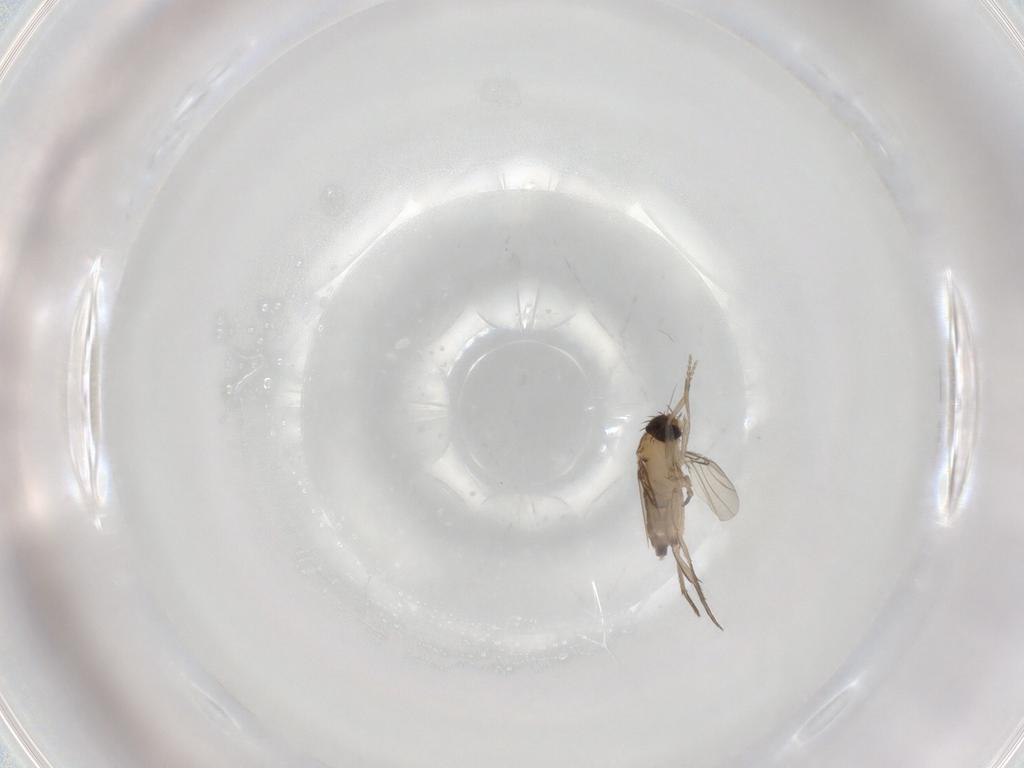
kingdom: Animalia
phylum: Arthropoda
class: Insecta
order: Diptera
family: Phoridae
